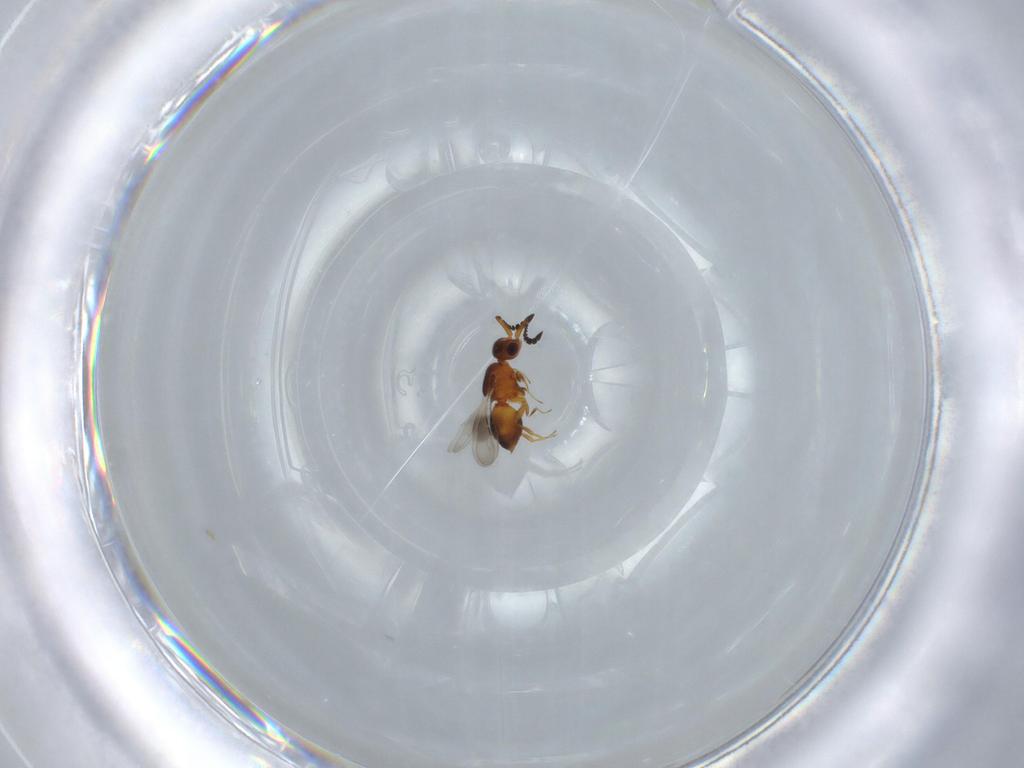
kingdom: Animalia
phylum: Arthropoda
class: Insecta
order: Hymenoptera
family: Ceraphronidae
